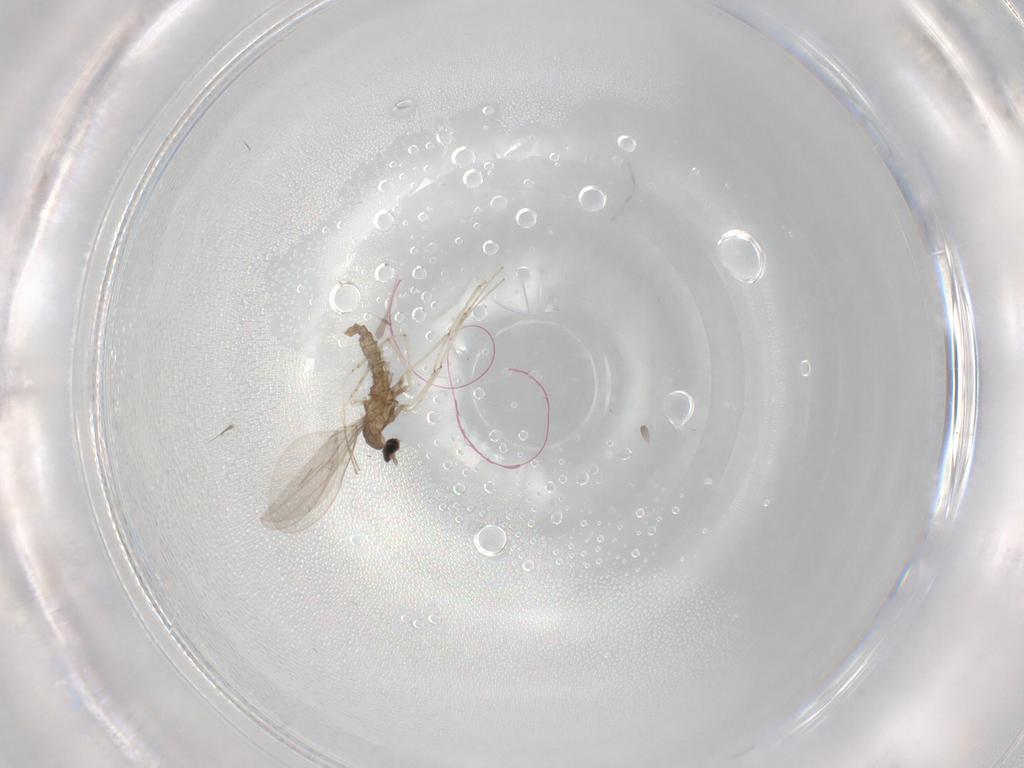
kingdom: Animalia
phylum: Arthropoda
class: Insecta
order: Diptera
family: Cecidomyiidae
